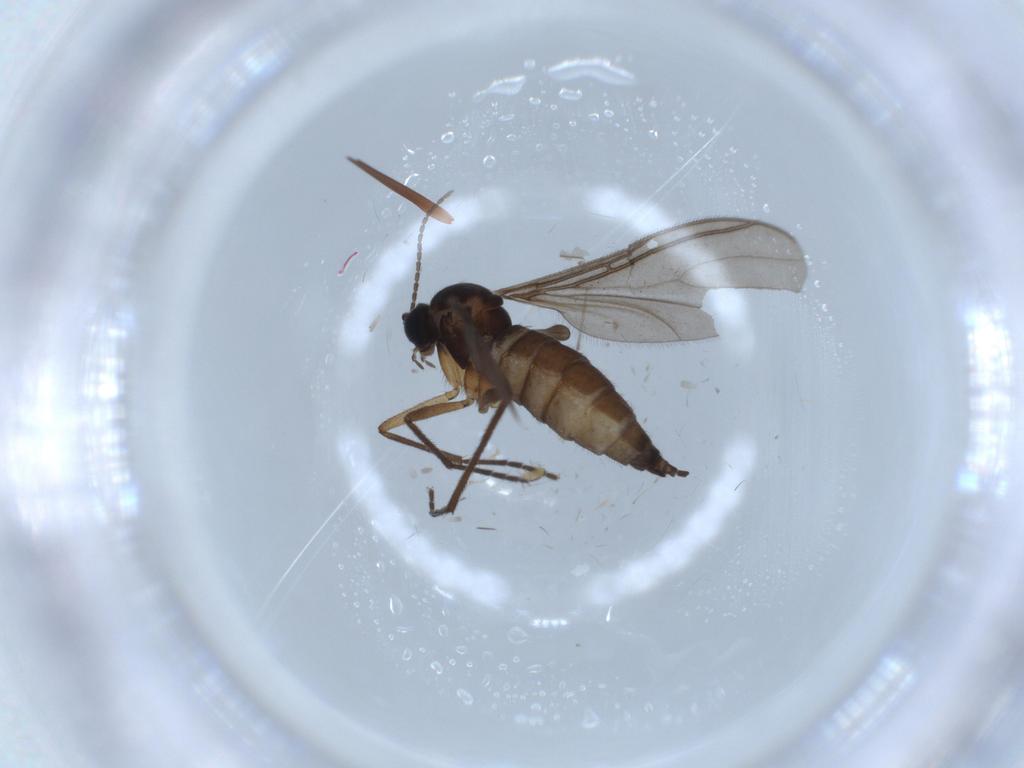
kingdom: Animalia
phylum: Arthropoda
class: Insecta
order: Diptera
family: Sciaridae
